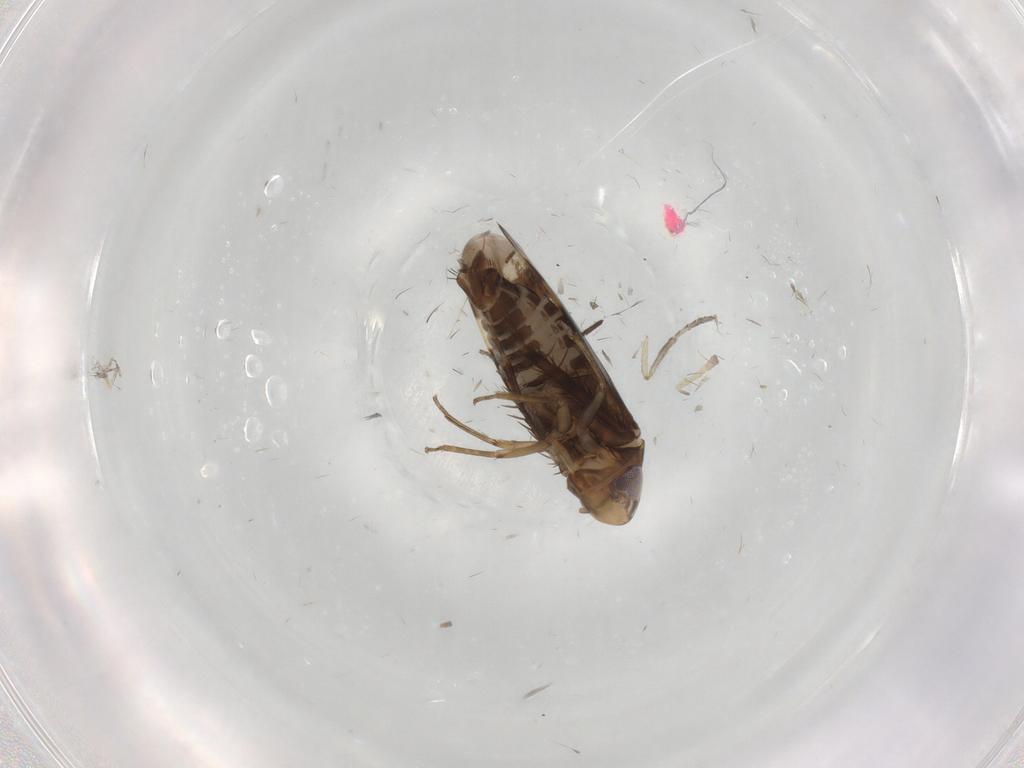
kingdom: Animalia
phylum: Arthropoda
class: Insecta
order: Hemiptera
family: Cicadellidae
